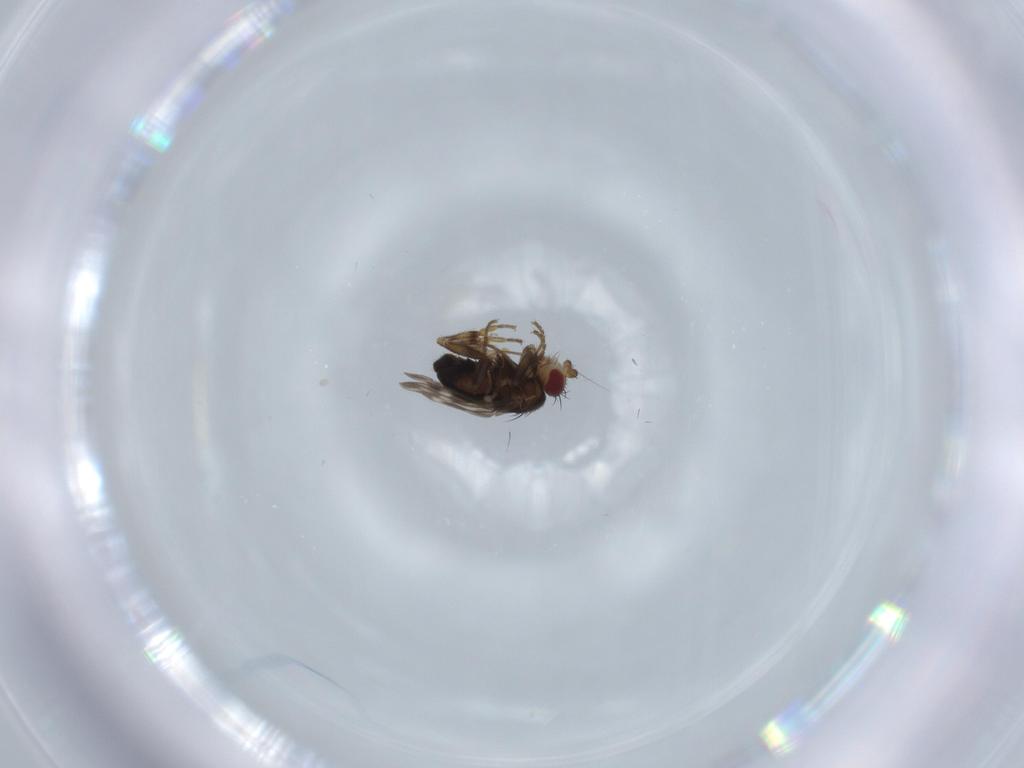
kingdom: Animalia
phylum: Arthropoda
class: Insecta
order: Diptera
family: Sphaeroceridae
